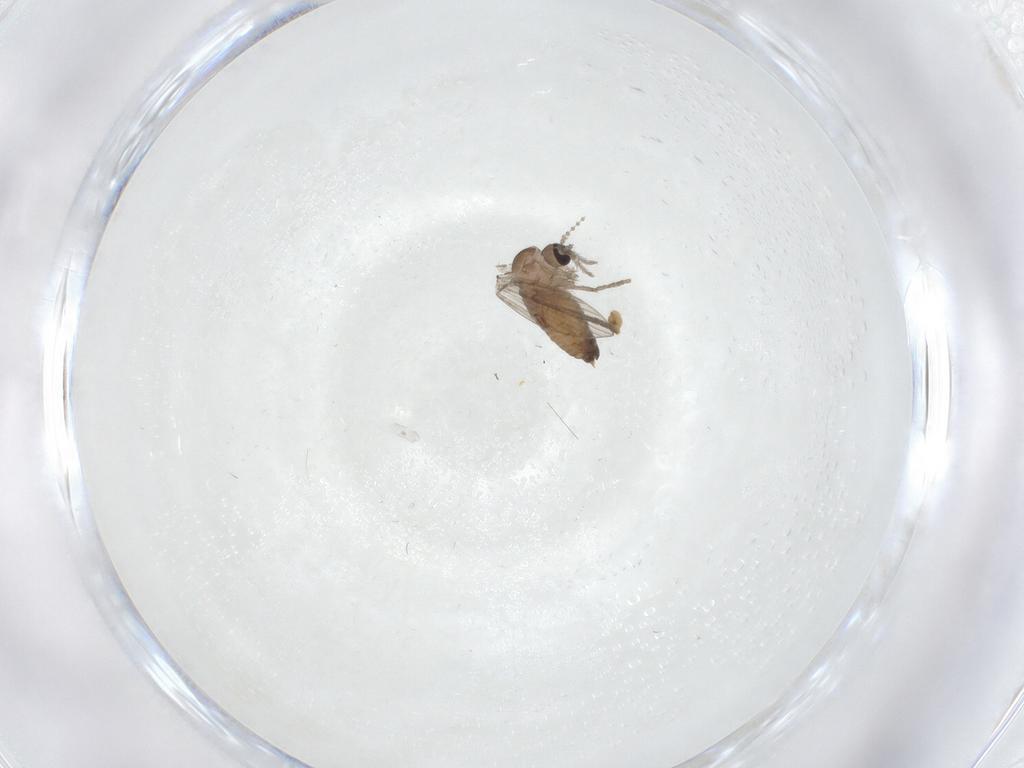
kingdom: Animalia
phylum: Arthropoda
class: Insecta
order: Diptera
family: Psychodidae
